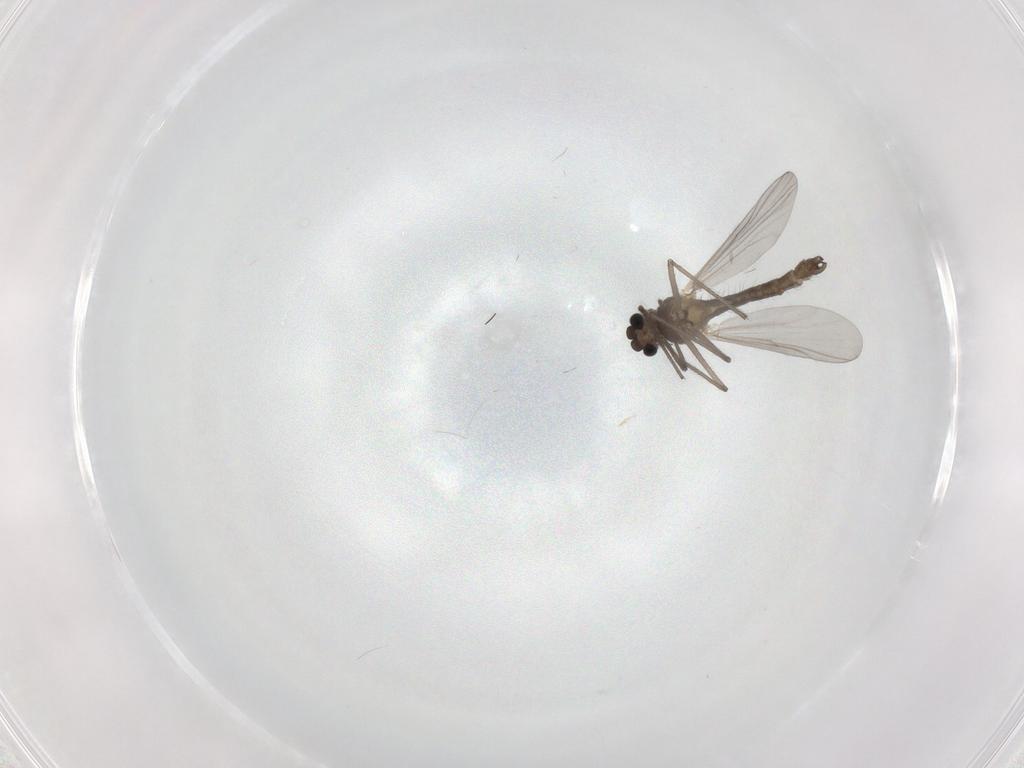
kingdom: Animalia
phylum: Arthropoda
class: Insecta
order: Diptera
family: Chironomidae
